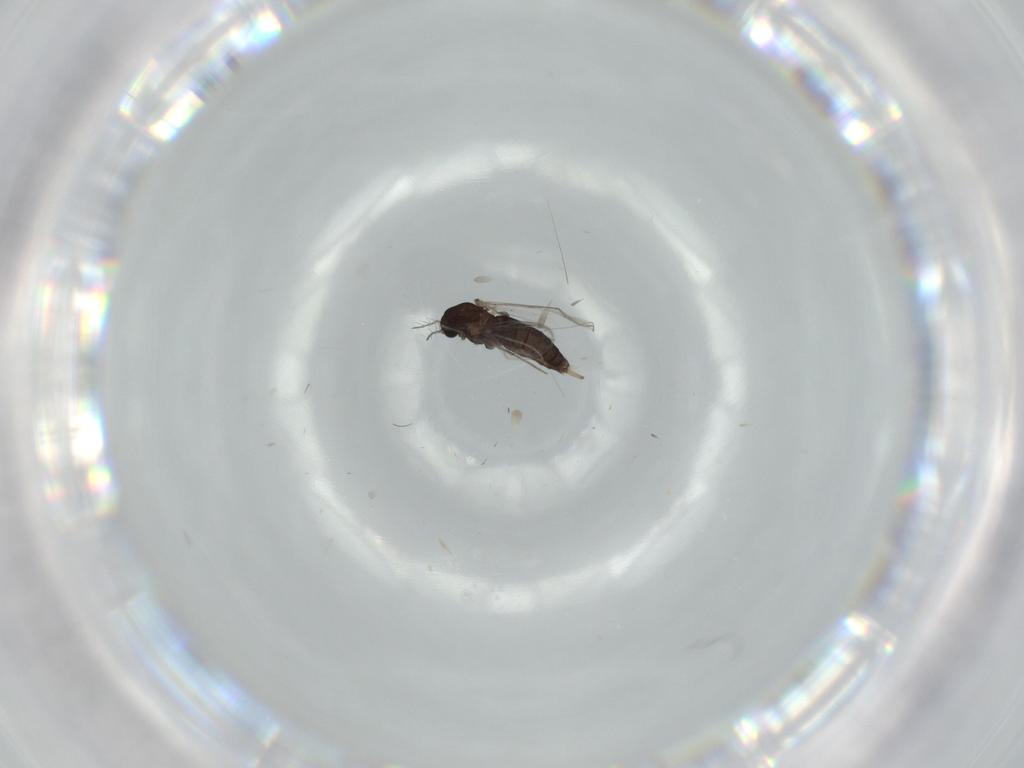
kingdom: Animalia
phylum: Arthropoda
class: Insecta
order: Diptera
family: Chironomidae
